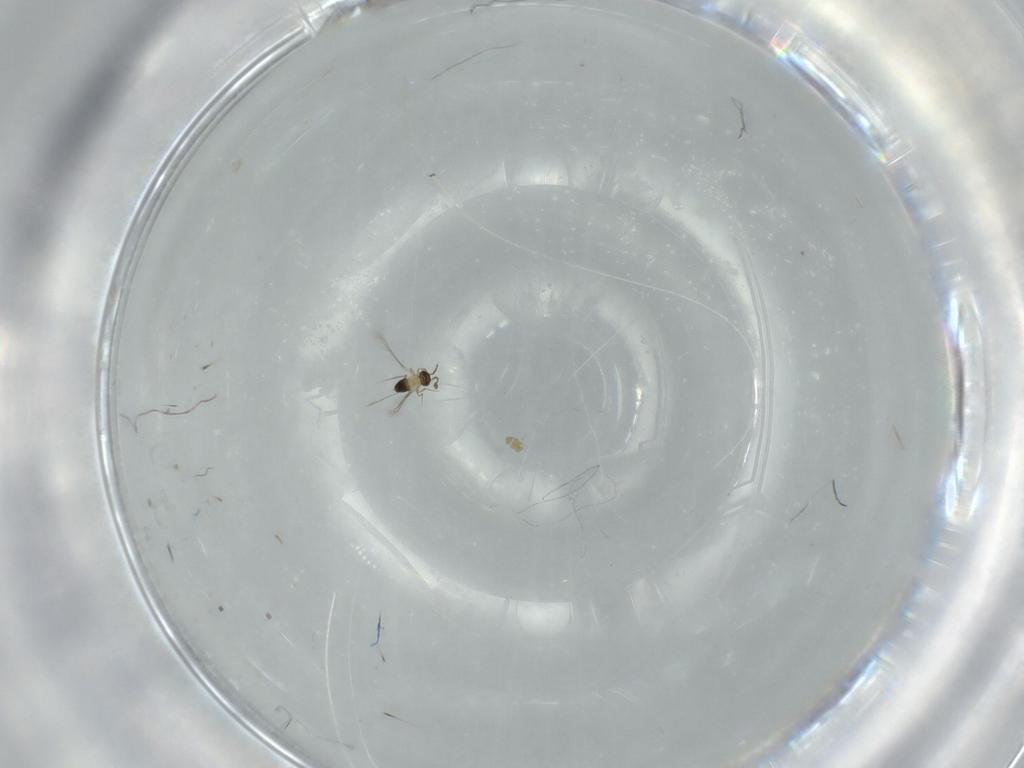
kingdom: Animalia
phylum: Arthropoda
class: Insecta
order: Hymenoptera
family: Mymaridae
